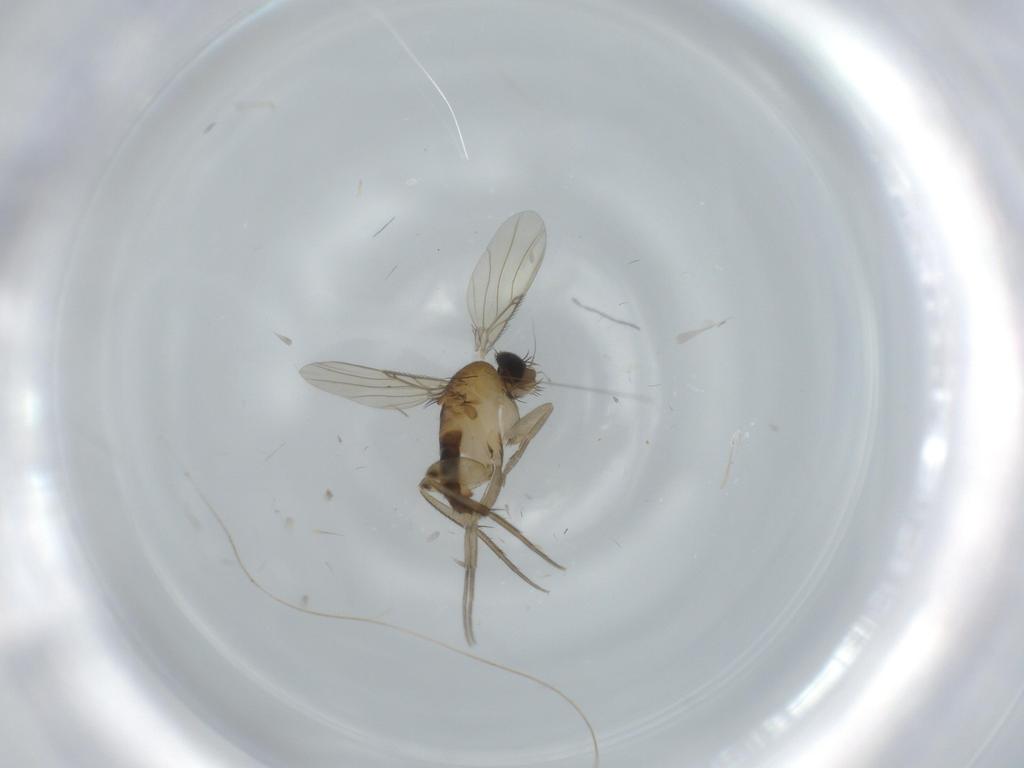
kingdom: Animalia
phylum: Arthropoda
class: Insecta
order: Diptera
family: Phoridae
